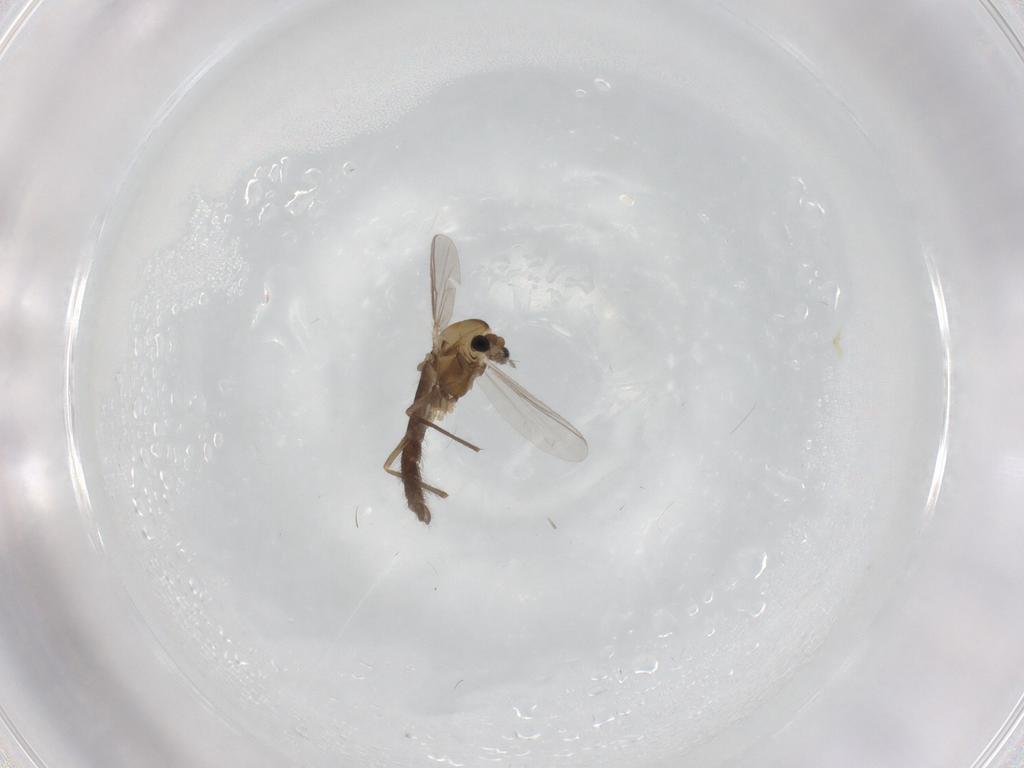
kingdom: Animalia
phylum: Arthropoda
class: Insecta
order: Diptera
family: Chironomidae
